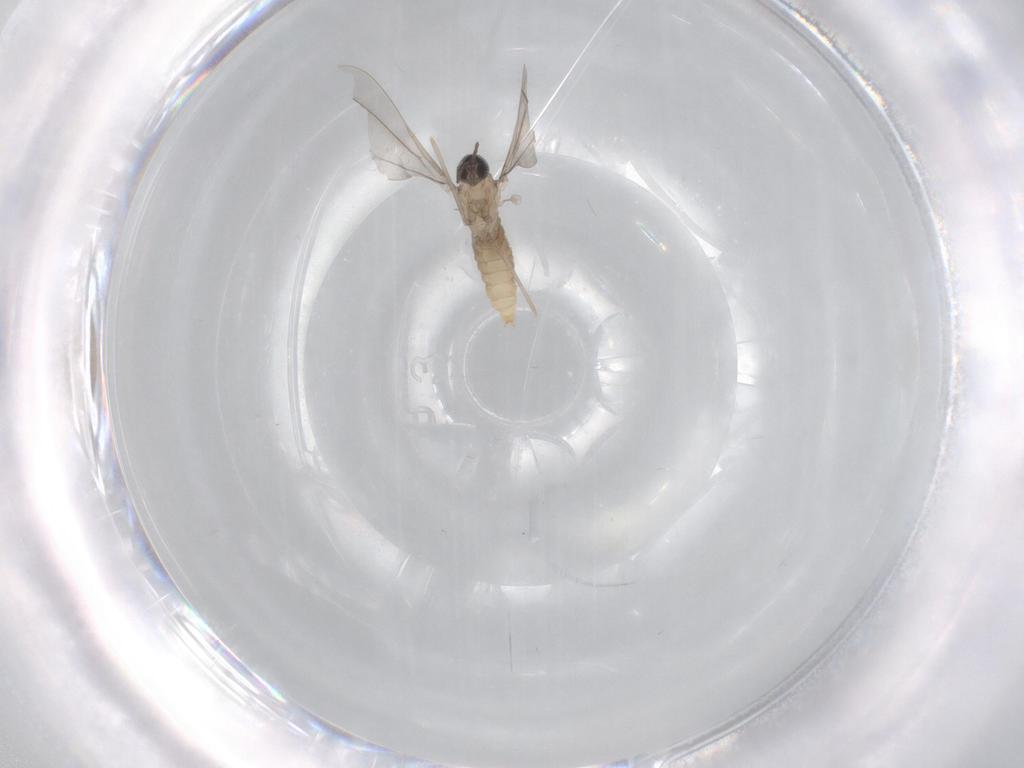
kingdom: Animalia
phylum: Arthropoda
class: Insecta
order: Diptera
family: Cecidomyiidae
